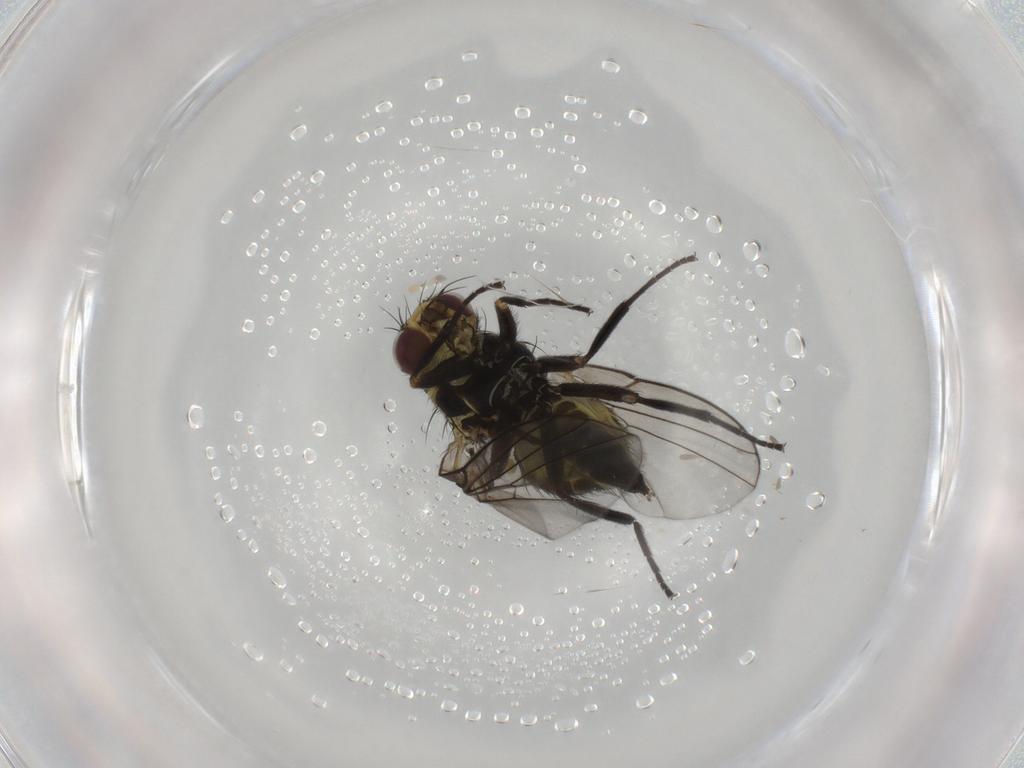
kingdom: Animalia
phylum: Arthropoda
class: Insecta
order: Diptera
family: Agromyzidae
